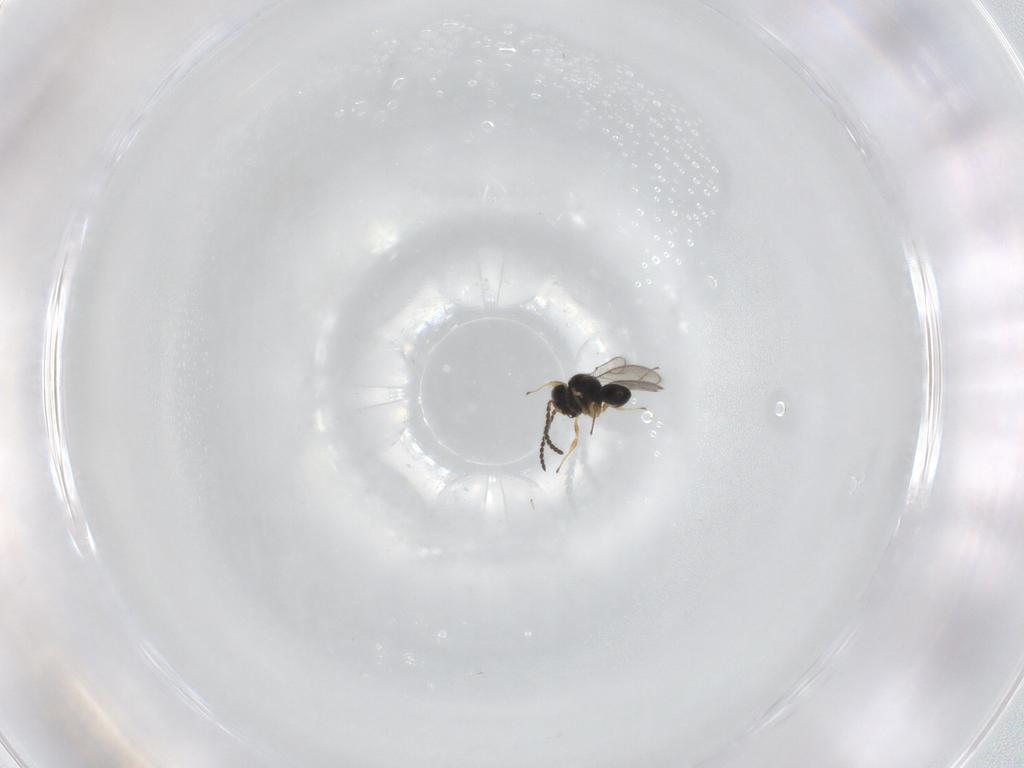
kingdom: Animalia
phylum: Arthropoda
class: Insecta
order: Hymenoptera
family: Scelionidae
